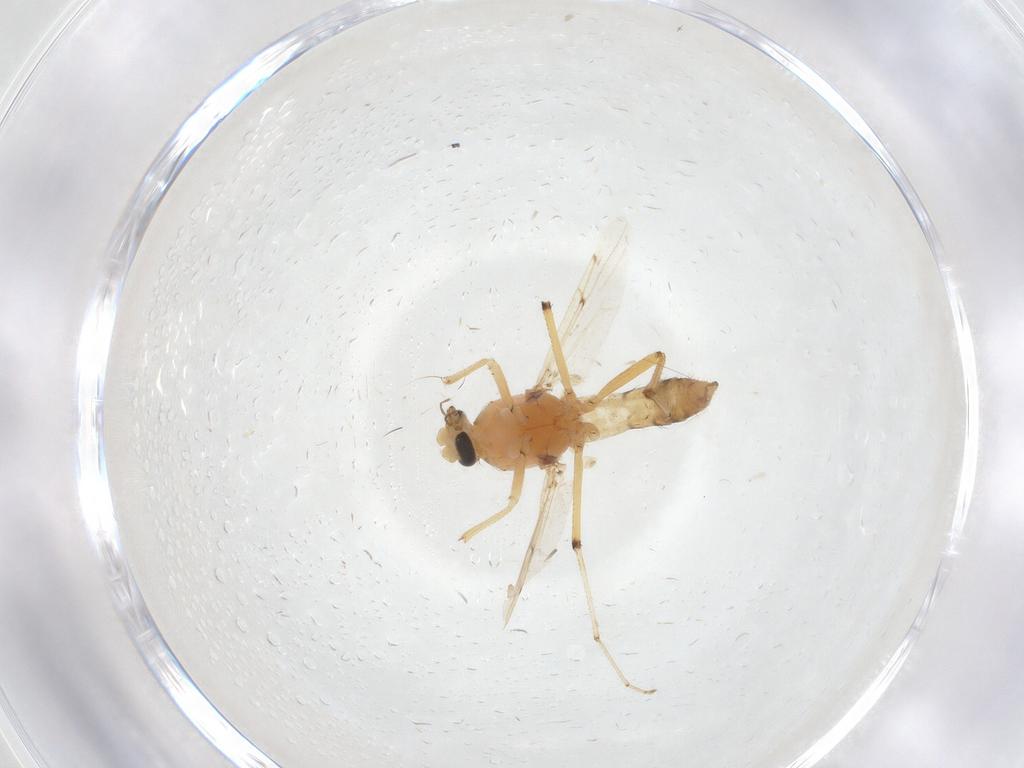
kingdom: Animalia
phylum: Arthropoda
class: Insecta
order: Diptera
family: Ceratopogonidae
